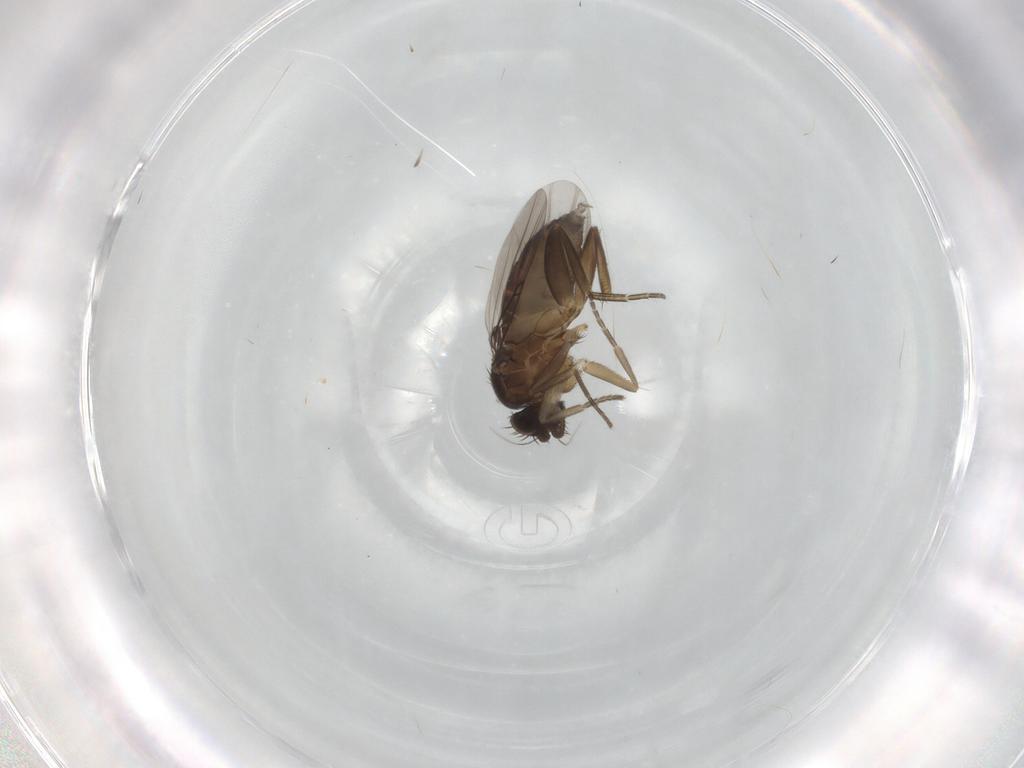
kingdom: Animalia
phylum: Arthropoda
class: Insecta
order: Diptera
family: Phoridae
